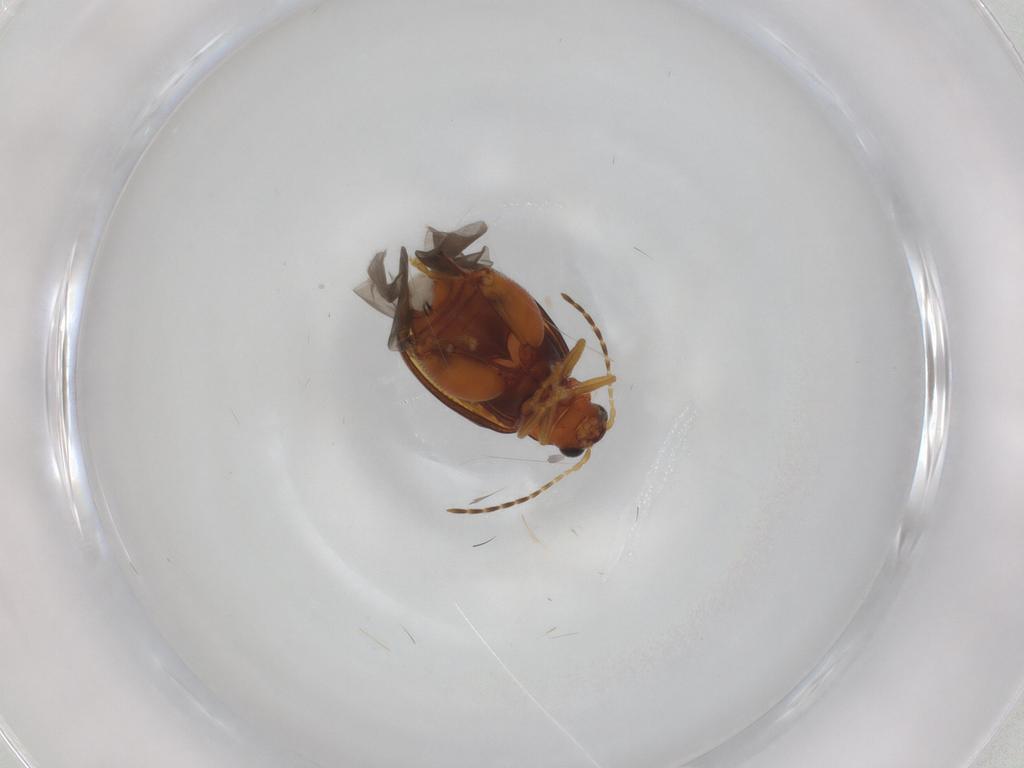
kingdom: Animalia
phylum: Arthropoda
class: Insecta
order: Coleoptera
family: Chrysomelidae
